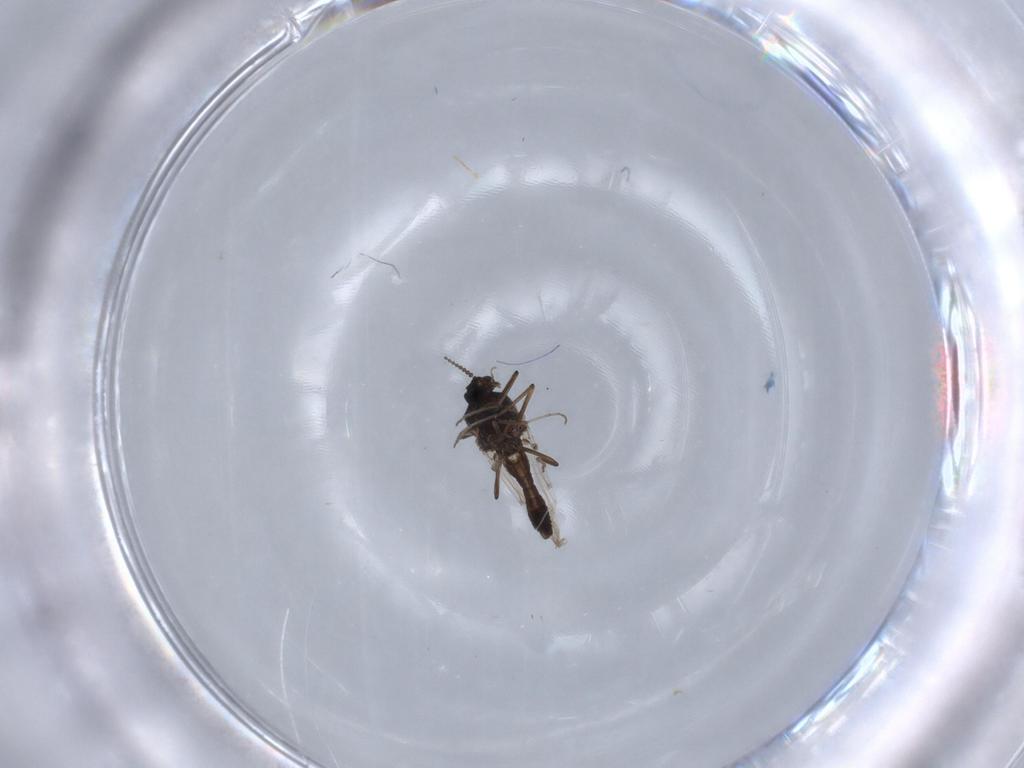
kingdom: Animalia
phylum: Arthropoda
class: Insecta
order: Diptera
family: Ceratopogonidae
